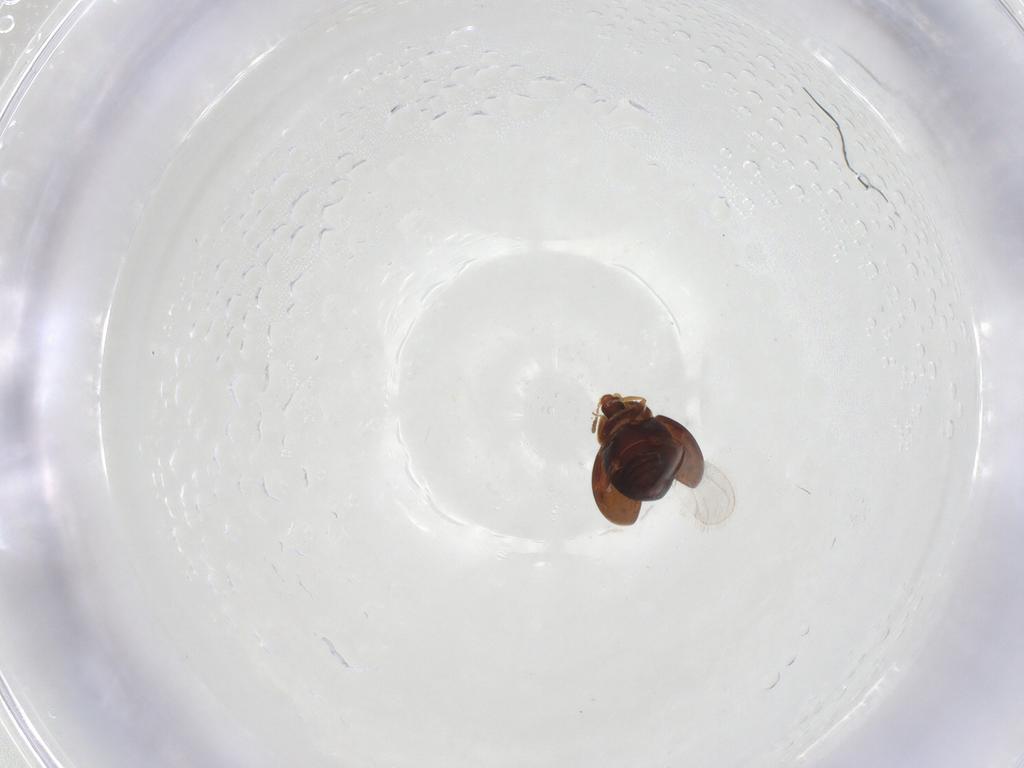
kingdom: Animalia
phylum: Arthropoda
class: Insecta
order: Coleoptera
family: Corylophidae
